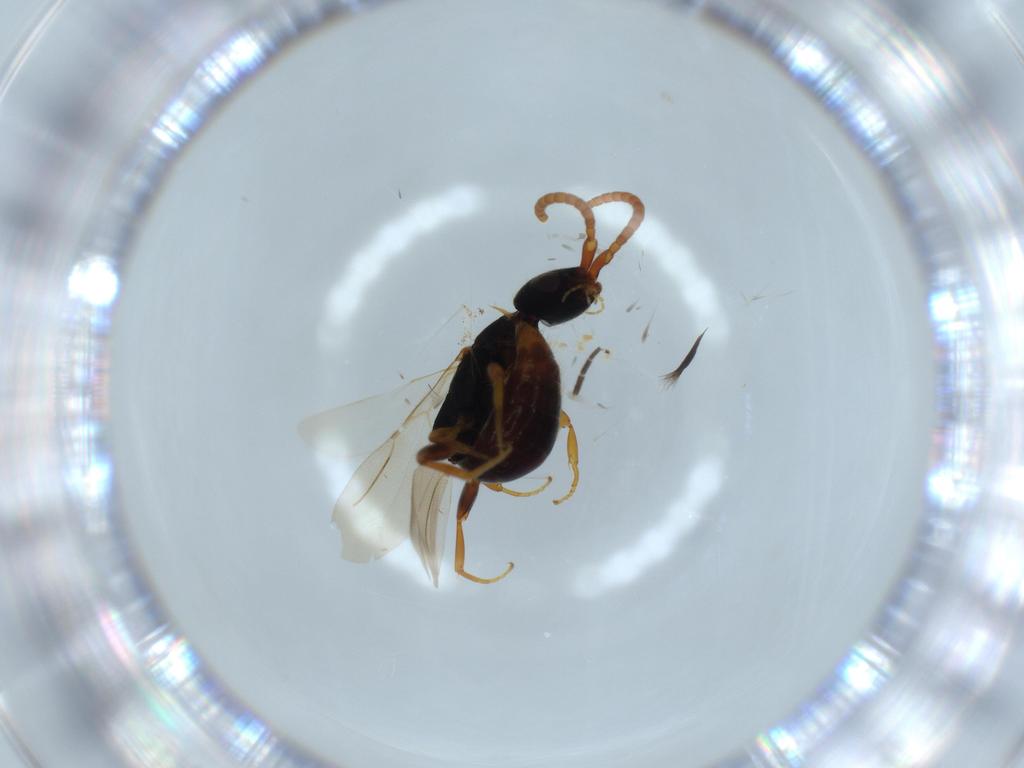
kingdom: Animalia
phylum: Arthropoda
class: Insecta
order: Hymenoptera
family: Bethylidae
